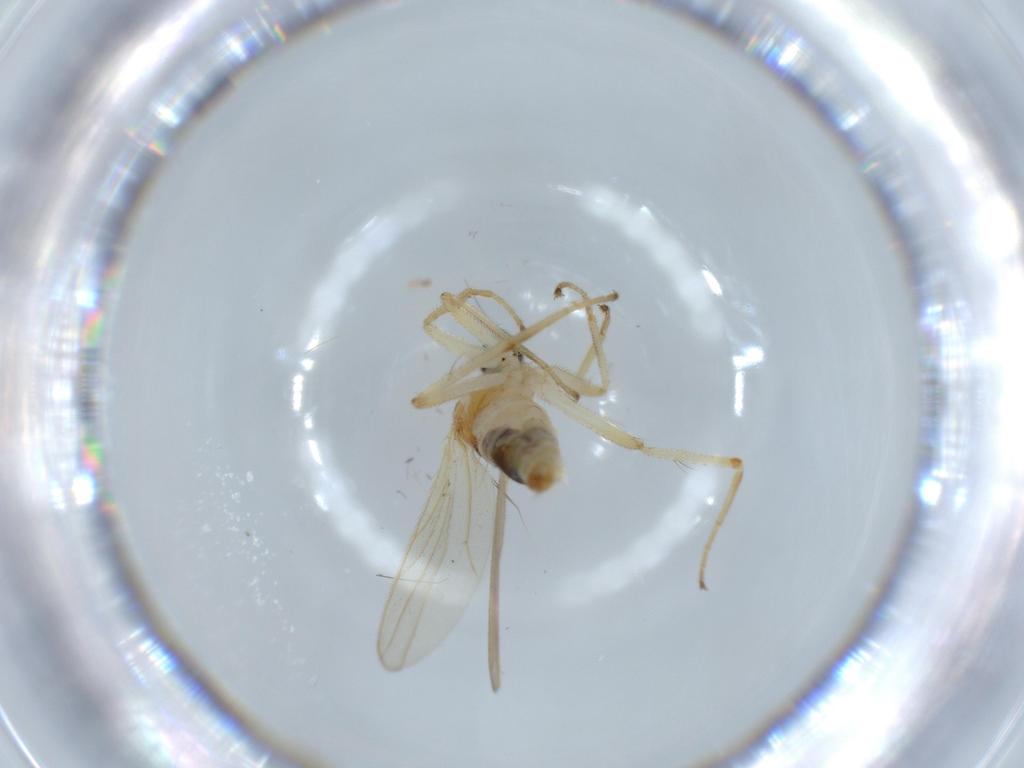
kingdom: Animalia
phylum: Arthropoda
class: Insecta
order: Diptera
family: Hybotidae
